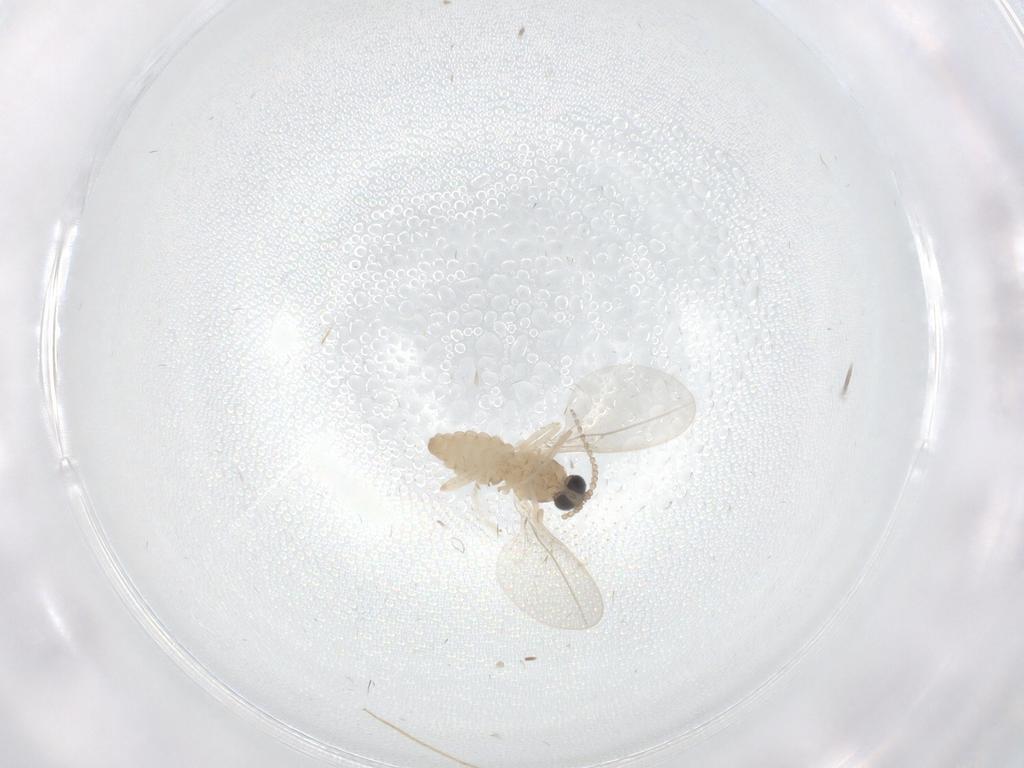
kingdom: Animalia
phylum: Arthropoda
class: Insecta
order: Diptera
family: Cecidomyiidae
